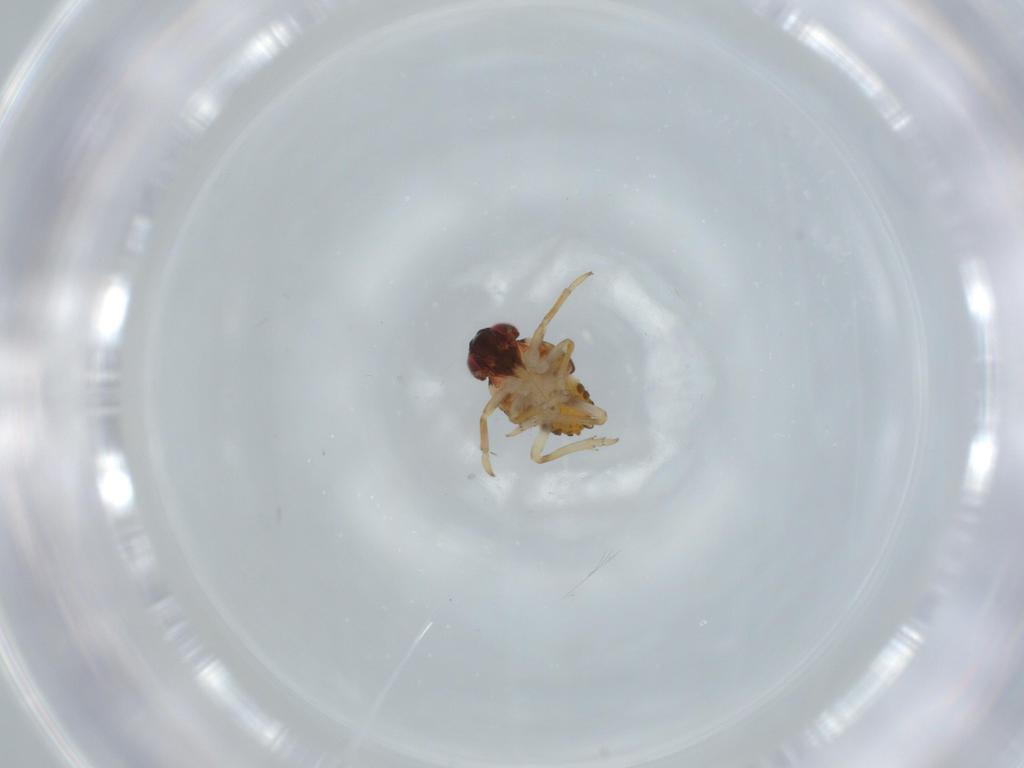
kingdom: Animalia
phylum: Arthropoda
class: Insecta
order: Hemiptera
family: Issidae
